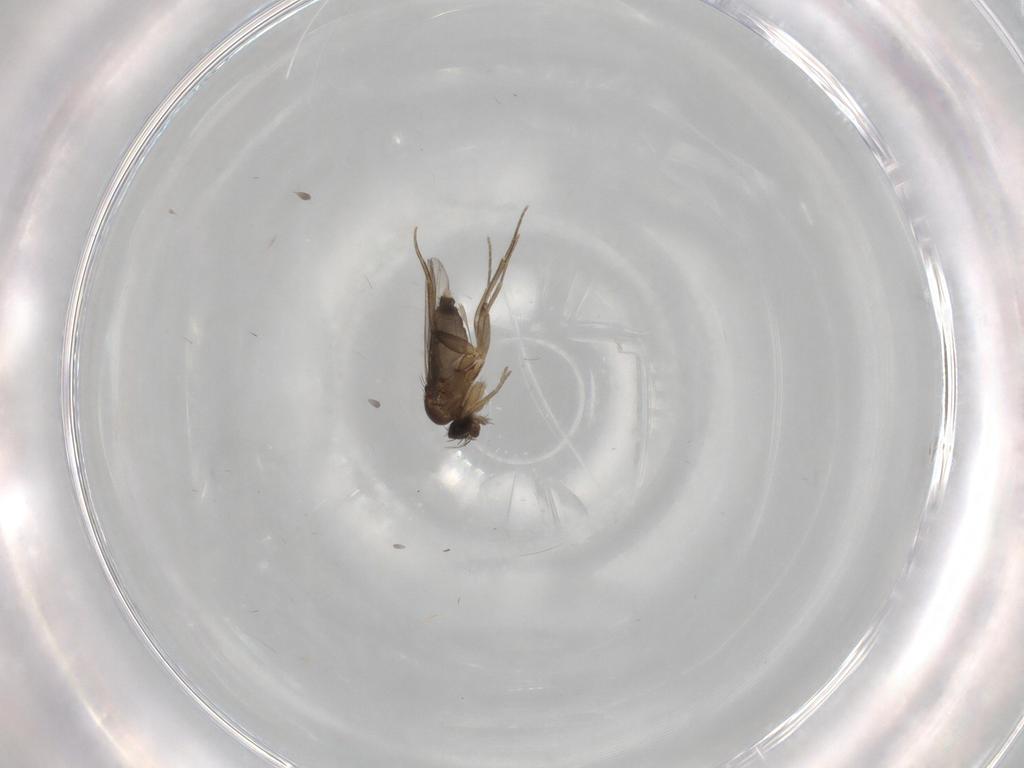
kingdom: Animalia
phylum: Arthropoda
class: Insecta
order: Diptera
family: Phoridae
